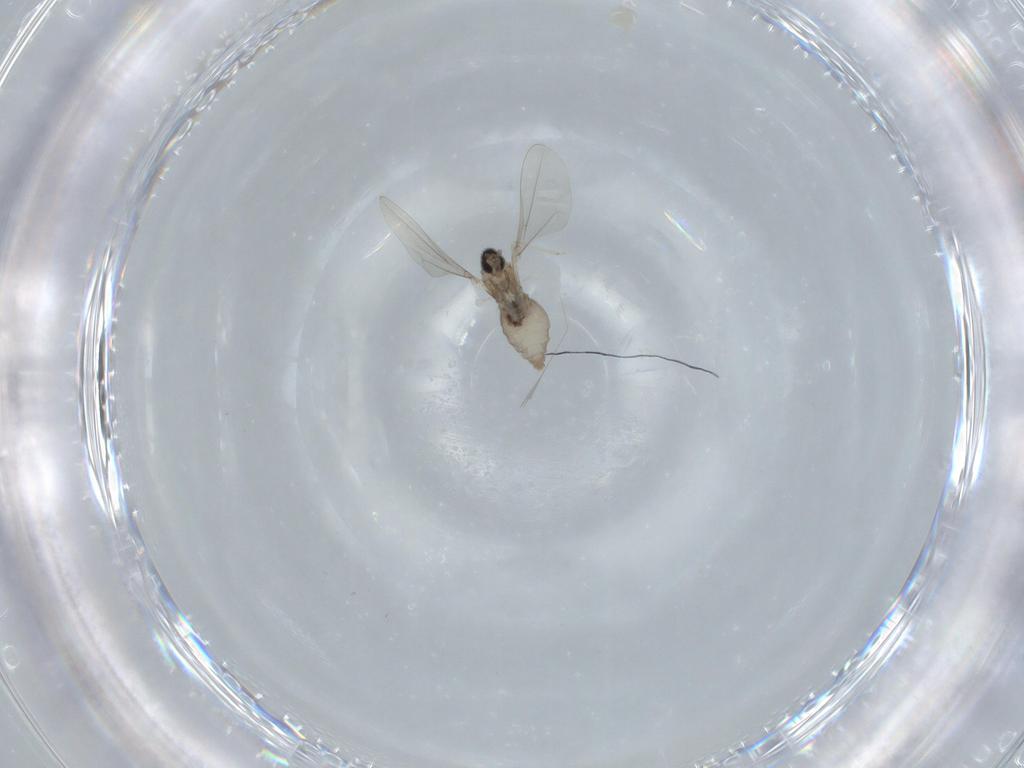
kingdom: Animalia
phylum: Arthropoda
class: Insecta
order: Diptera
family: Cecidomyiidae
